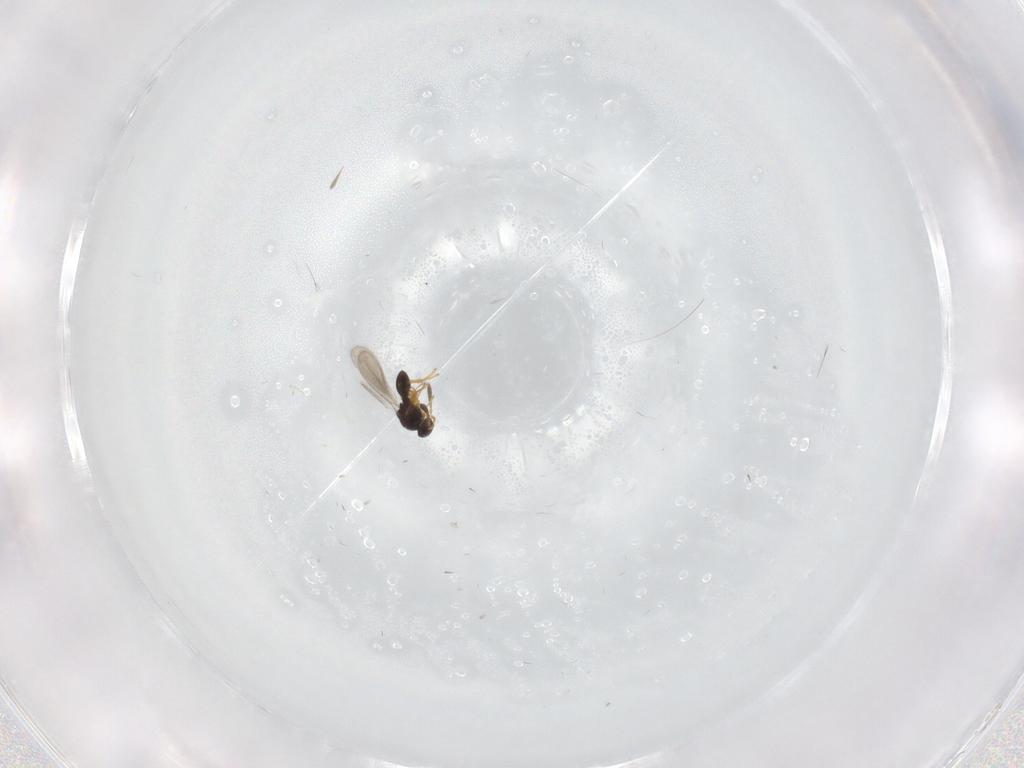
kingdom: Animalia
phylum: Arthropoda
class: Insecta
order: Hymenoptera
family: Platygastridae
